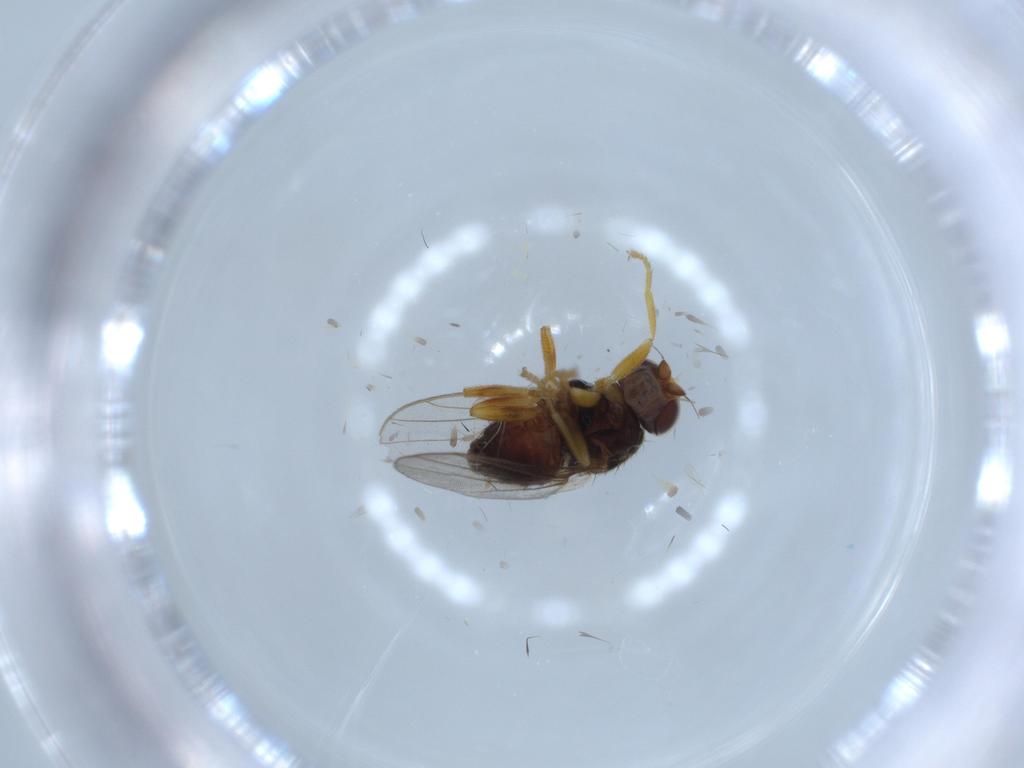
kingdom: Animalia
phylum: Arthropoda
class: Insecta
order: Diptera
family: Chloropidae
